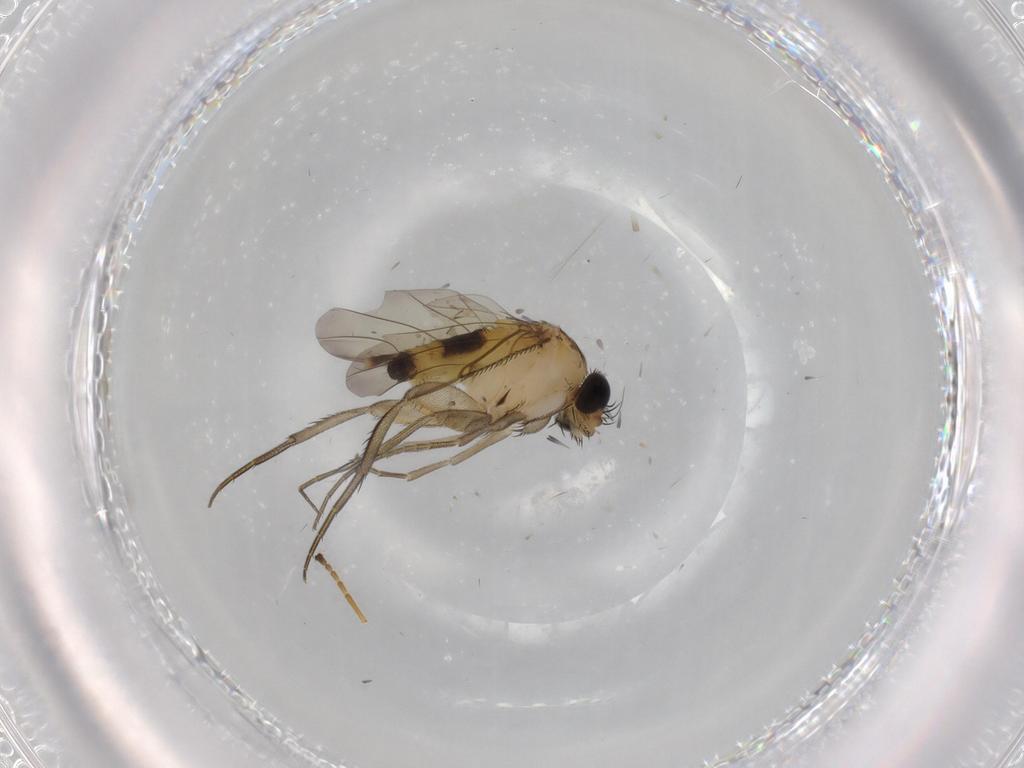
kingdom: Animalia
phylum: Arthropoda
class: Insecta
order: Diptera
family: Phoridae
